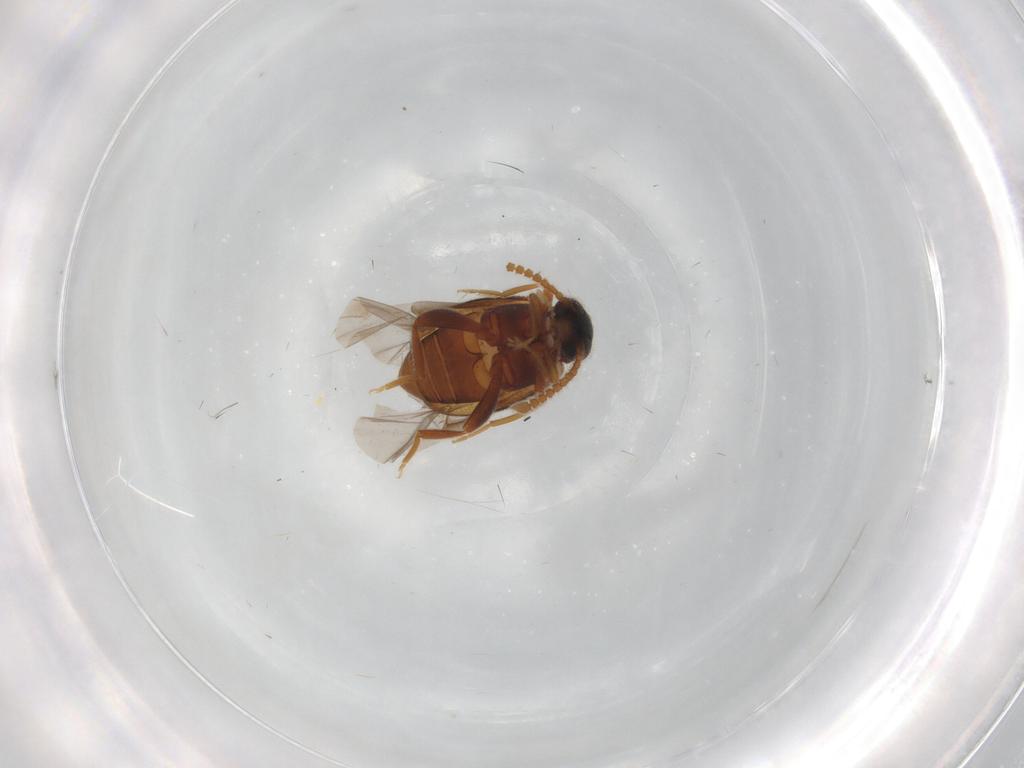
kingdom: Animalia
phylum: Arthropoda
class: Insecta
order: Coleoptera
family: Aderidae
